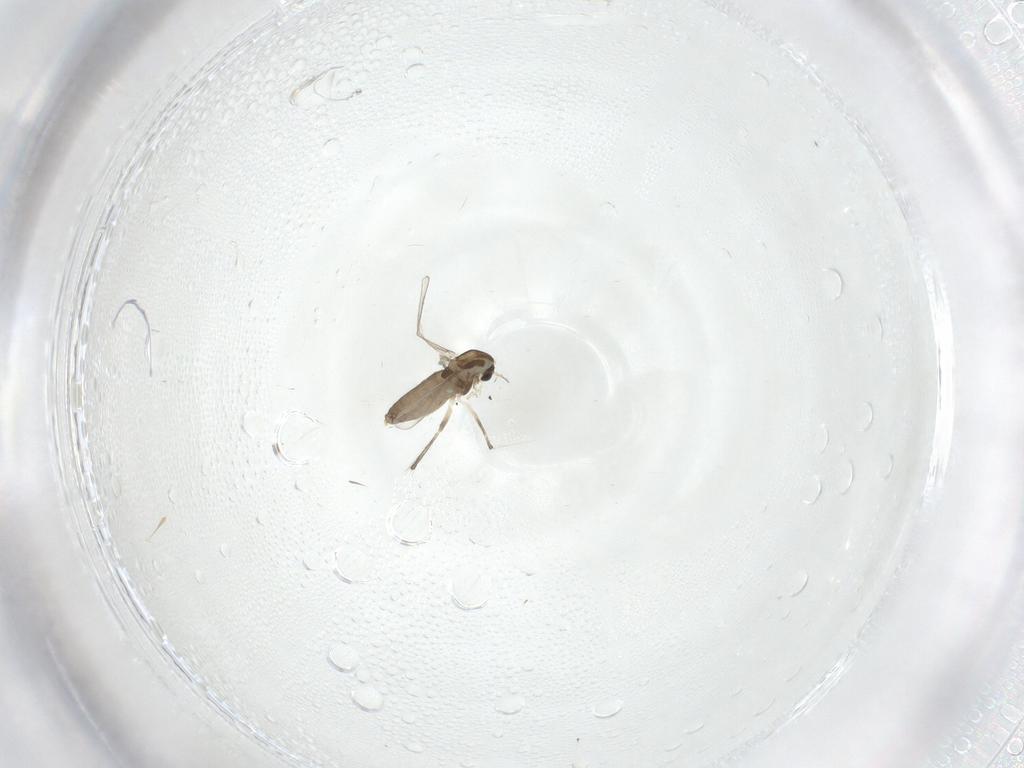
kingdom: Animalia
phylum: Arthropoda
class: Insecta
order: Diptera
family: Chironomidae
